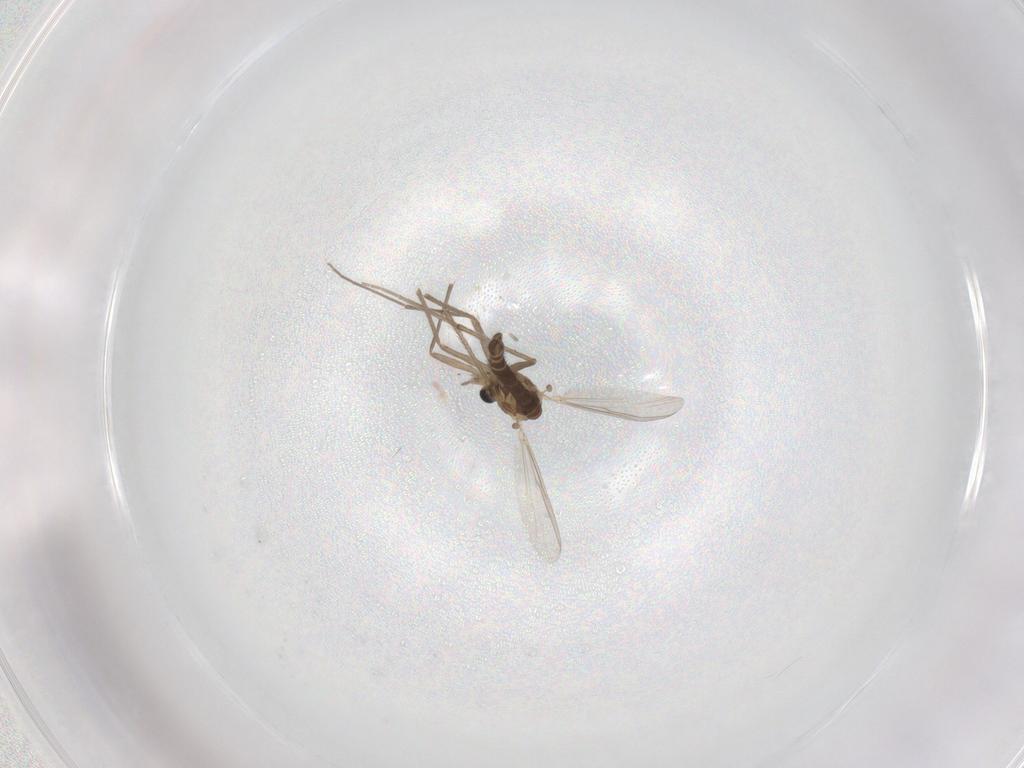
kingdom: Animalia
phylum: Arthropoda
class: Insecta
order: Diptera
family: Chironomidae
